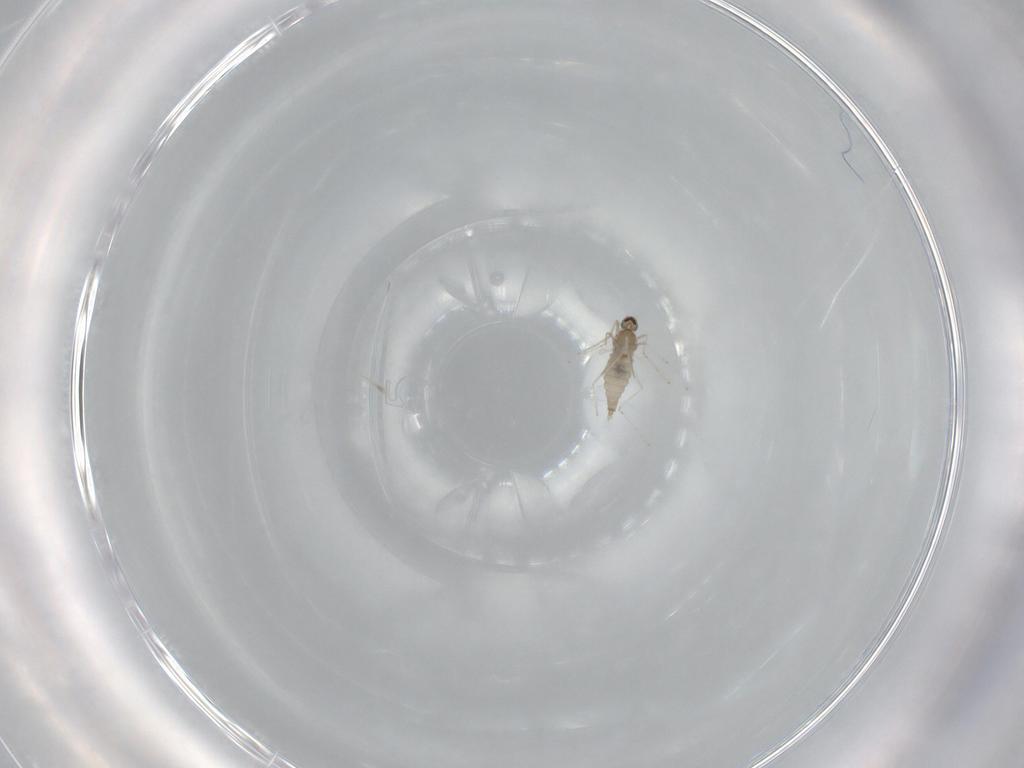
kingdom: Animalia
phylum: Arthropoda
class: Insecta
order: Diptera
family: Cecidomyiidae
